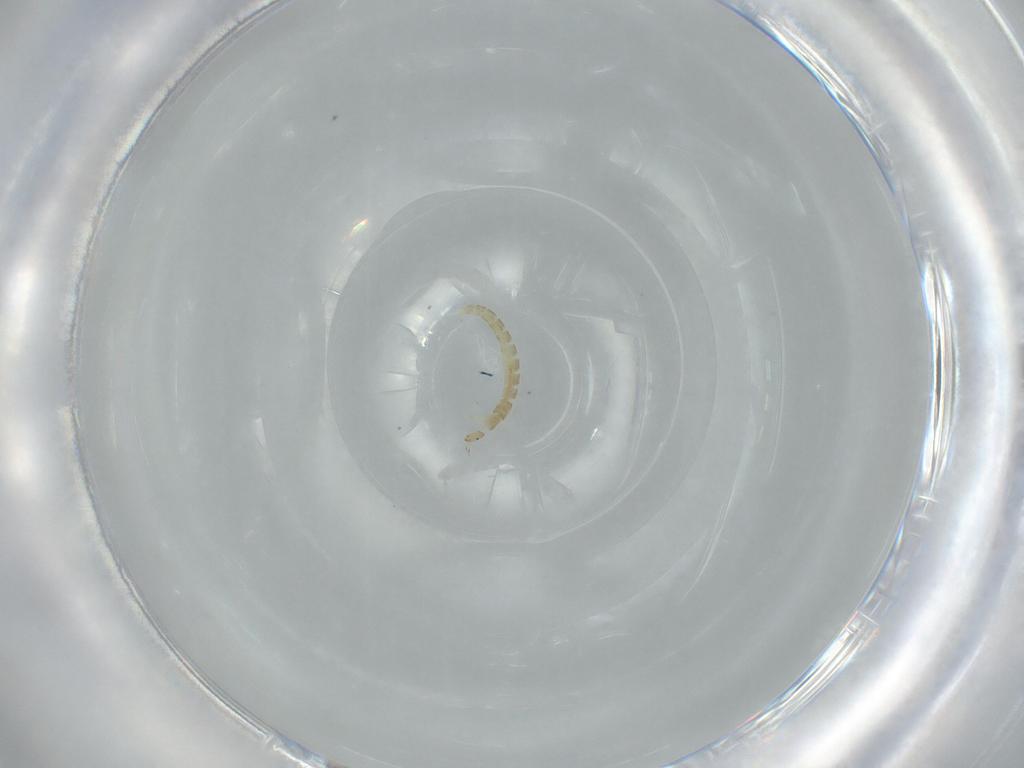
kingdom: Animalia
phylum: Arthropoda
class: Insecta
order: Diptera
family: Chironomidae
